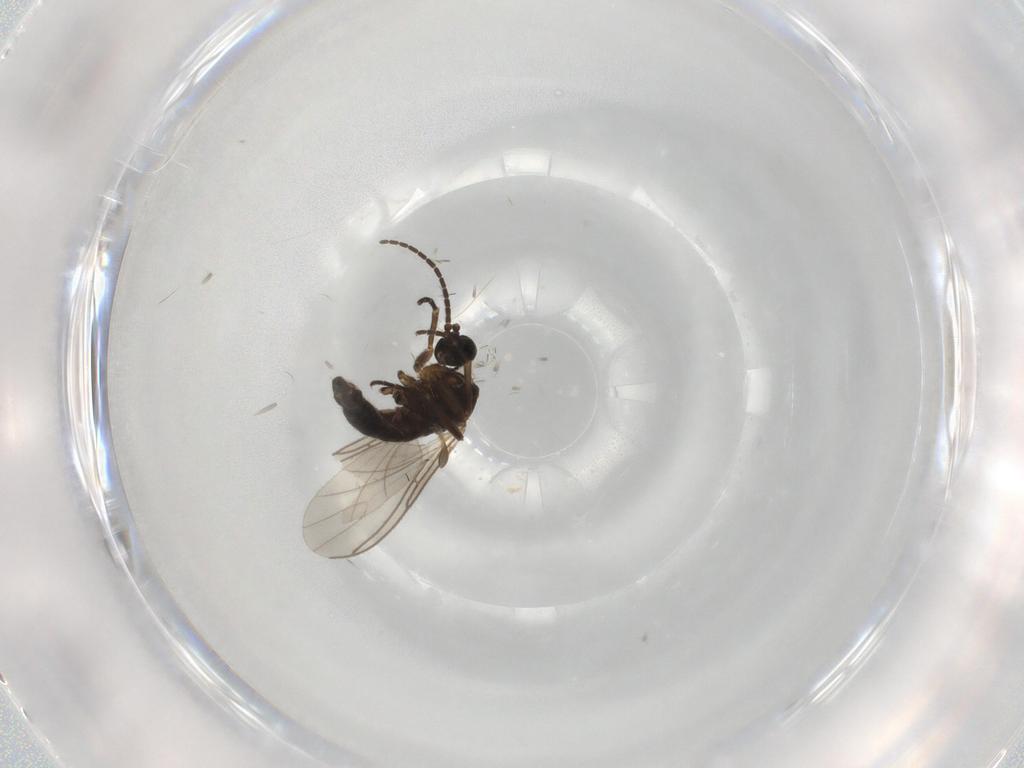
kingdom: Animalia
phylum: Arthropoda
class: Insecta
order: Diptera
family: Sciaridae
